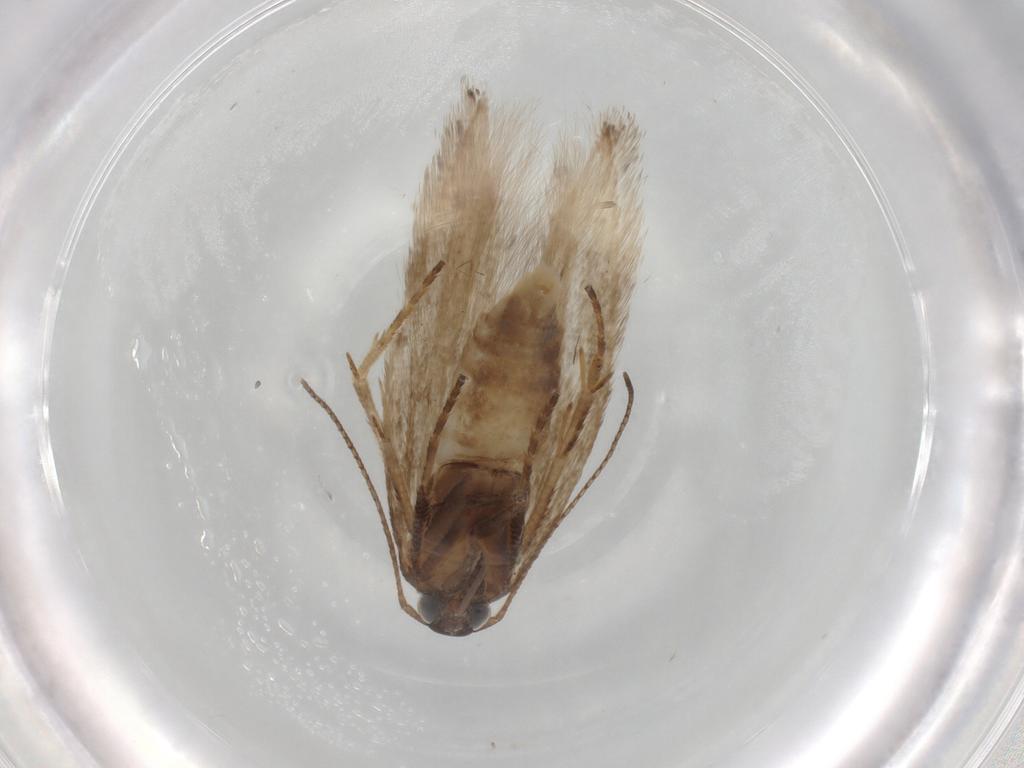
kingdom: Animalia
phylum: Arthropoda
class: Insecta
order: Lepidoptera
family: Gelechiidae
